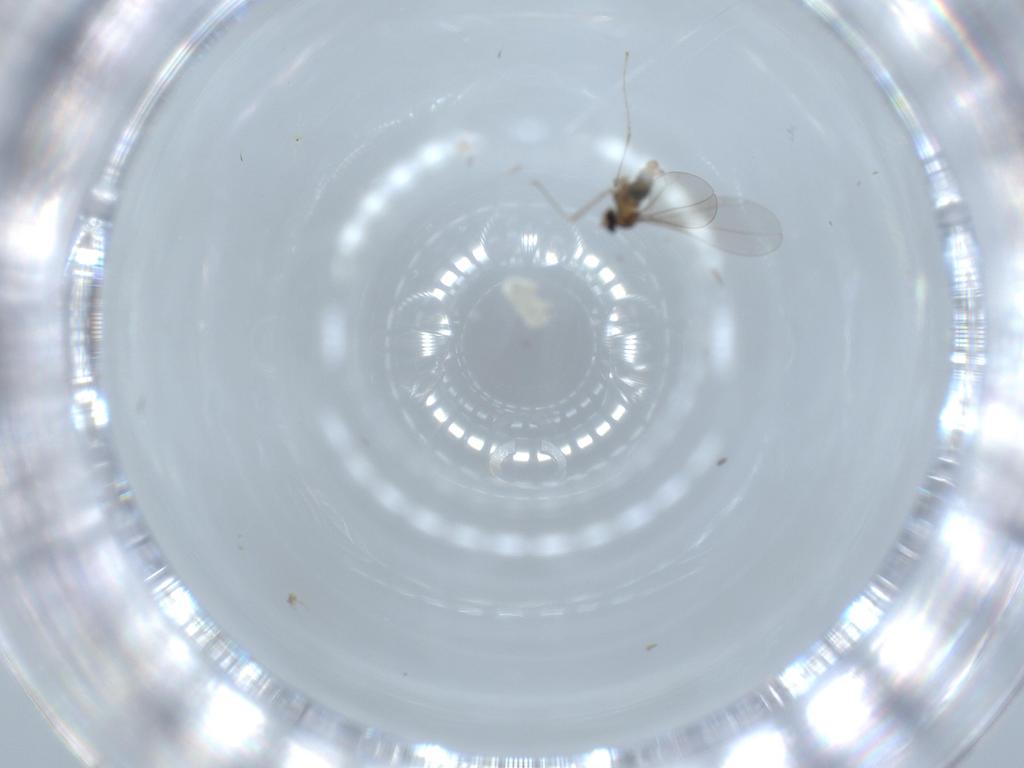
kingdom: Animalia
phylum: Arthropoda
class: Insecta
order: Diptera
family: Cecidomyiidae
